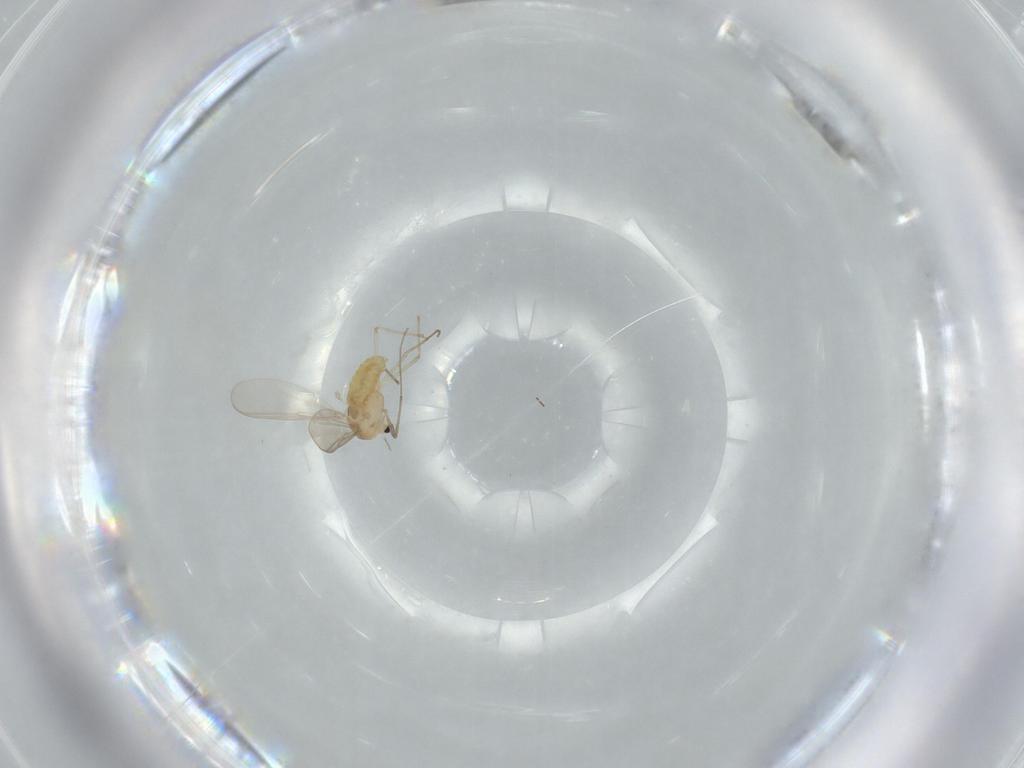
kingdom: Animalia
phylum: Arthropoda
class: Insecta
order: Diptera
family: Chironomidae
